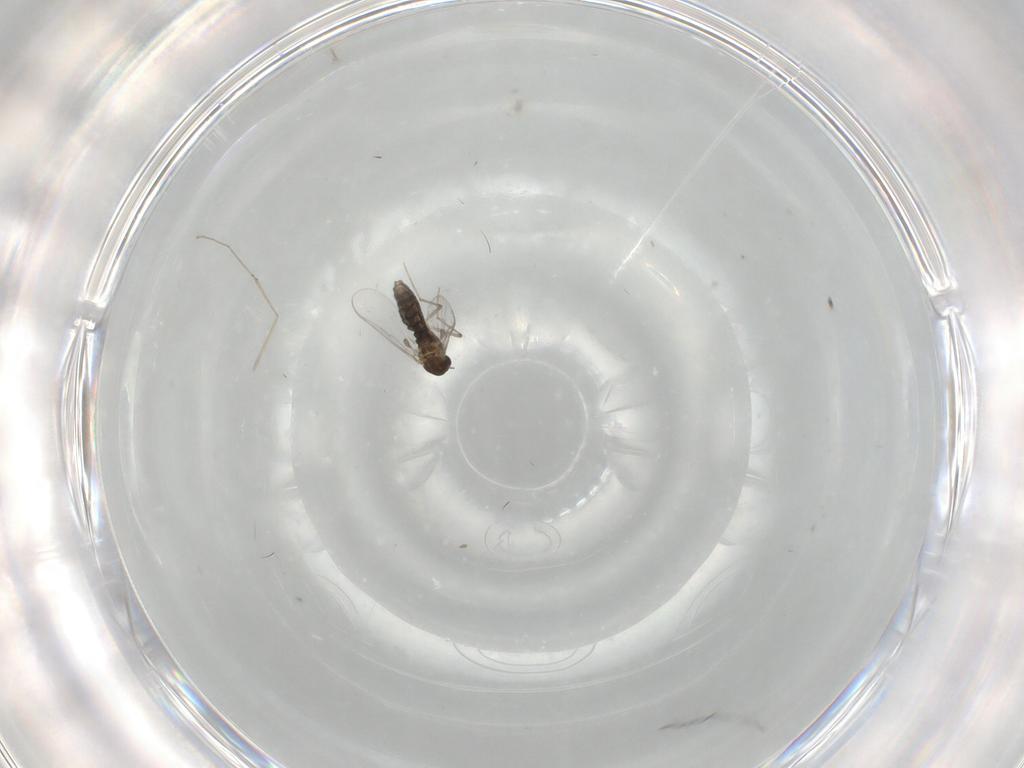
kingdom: Animalia
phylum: Arthropoda
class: Insecta
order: Diptera
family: Chironomidae
